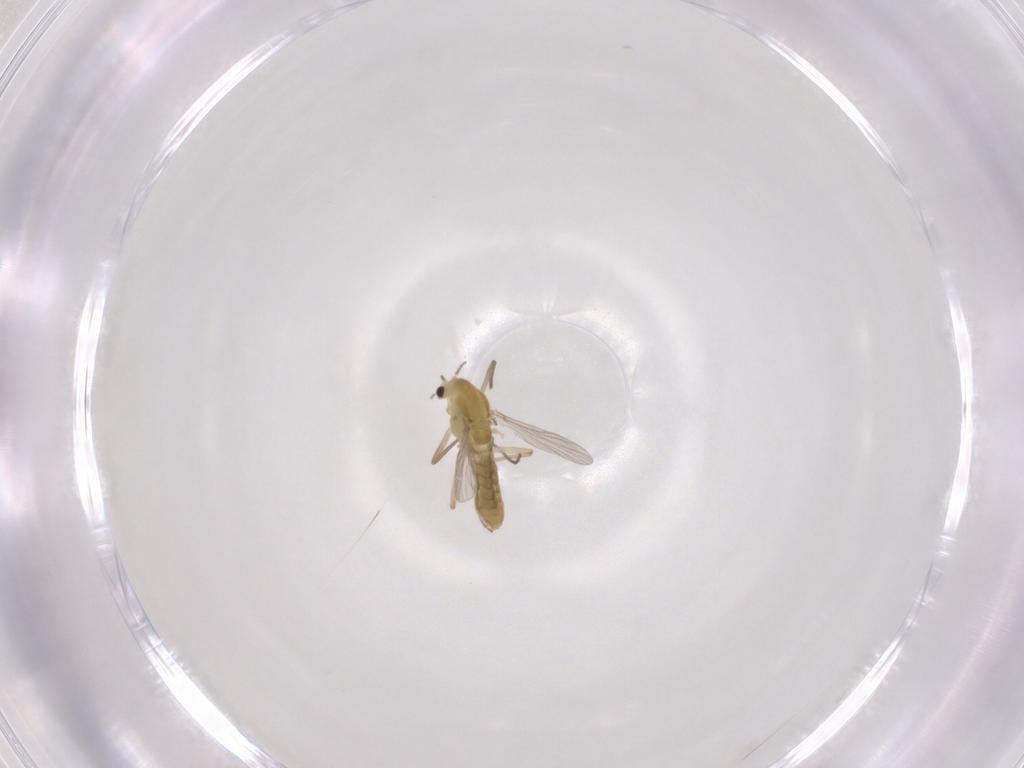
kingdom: Animalia
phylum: Arthropoda
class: Insecta
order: Diptera
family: Chironomidae
